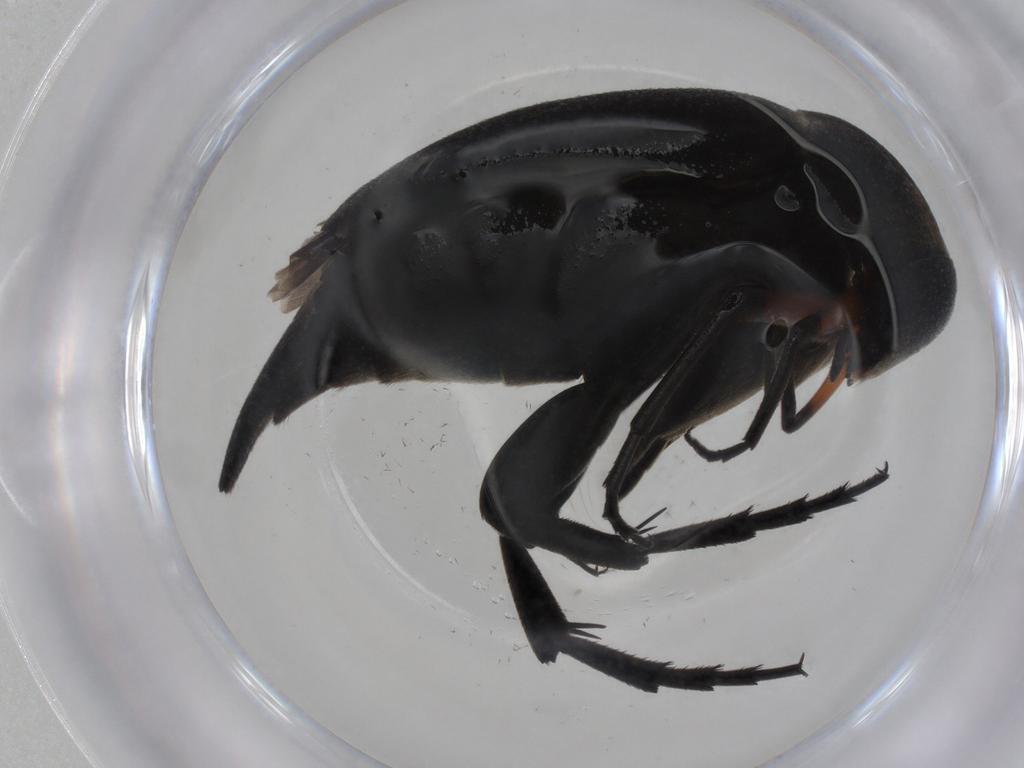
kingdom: Animalia
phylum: Arthropoda
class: Insecta
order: Coleoptera
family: Mordellidae
